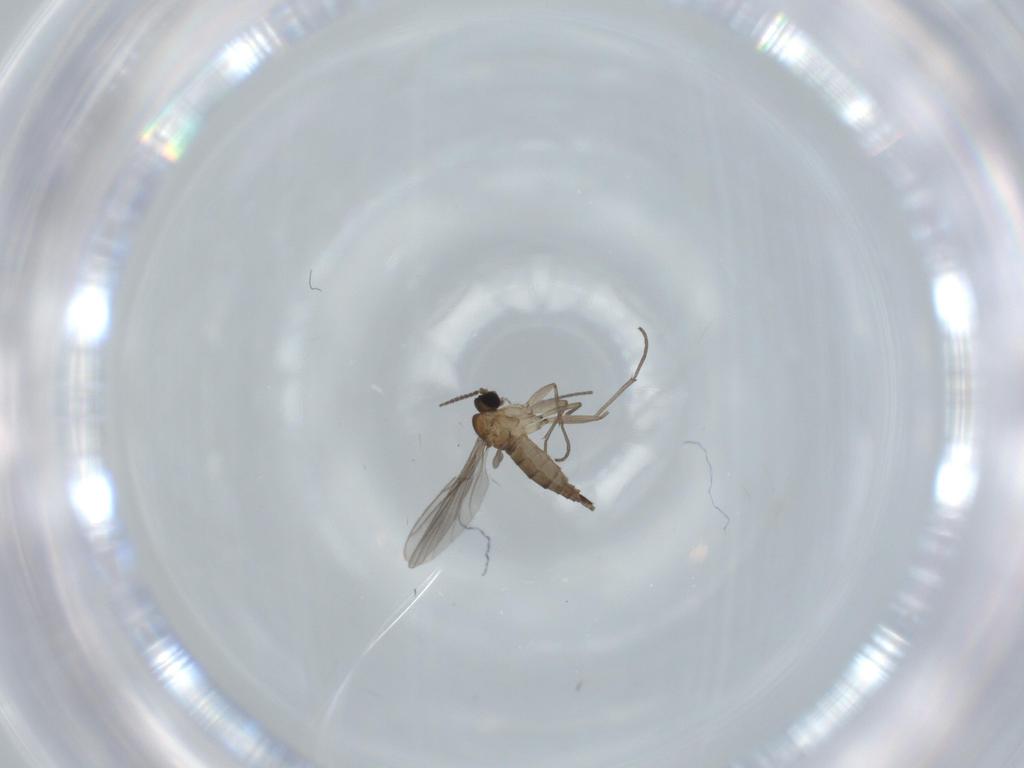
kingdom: Animalia
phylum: Arthropoda
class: Insecta
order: Diptera
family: Sciaridae
